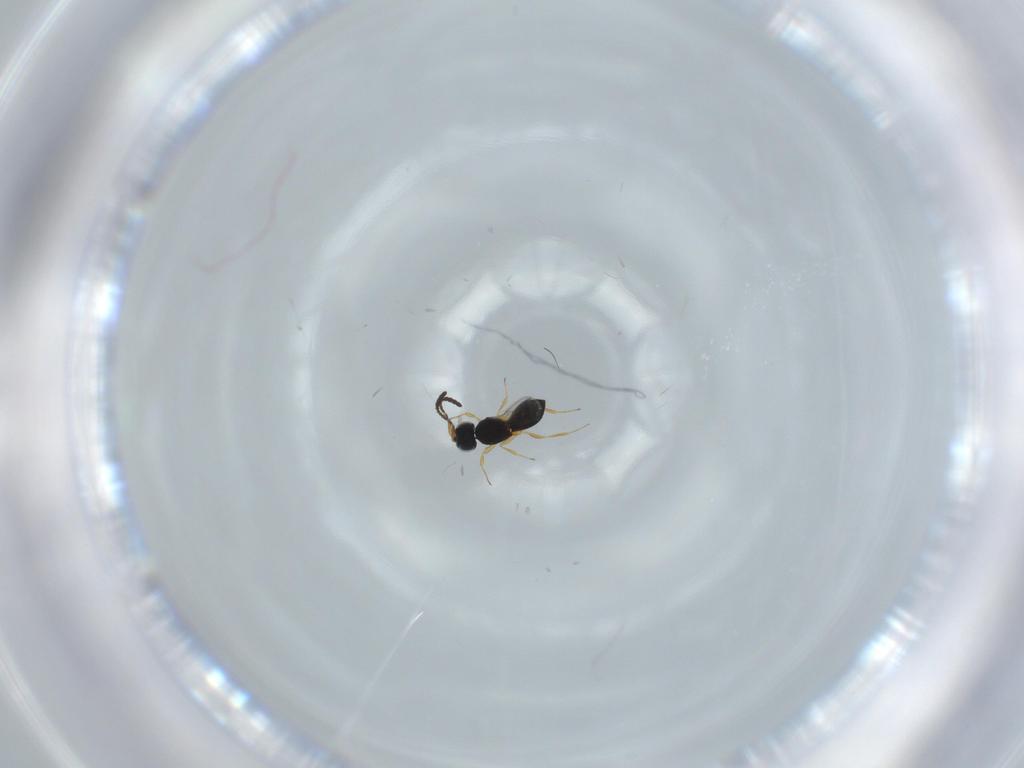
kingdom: Animalia
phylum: Arthropoda
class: Insecta
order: Hymenoptera
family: Scelionidae
